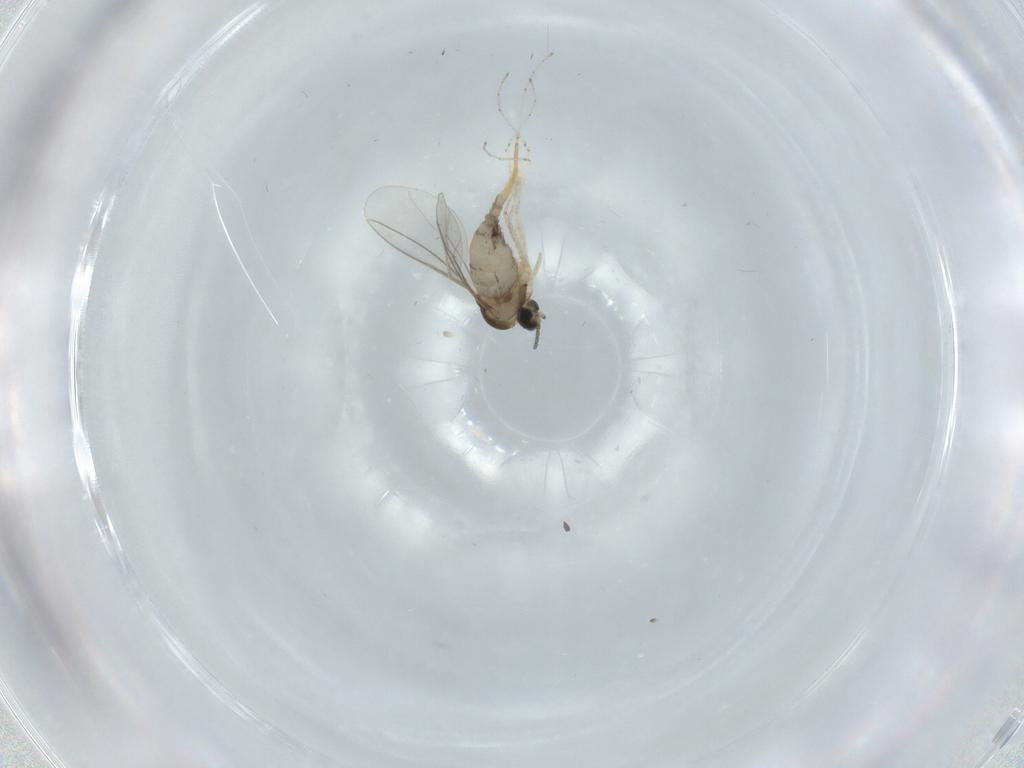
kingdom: Animalia
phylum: Arthropoda
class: Insecta
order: Diptera
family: Cecidomyiidae
